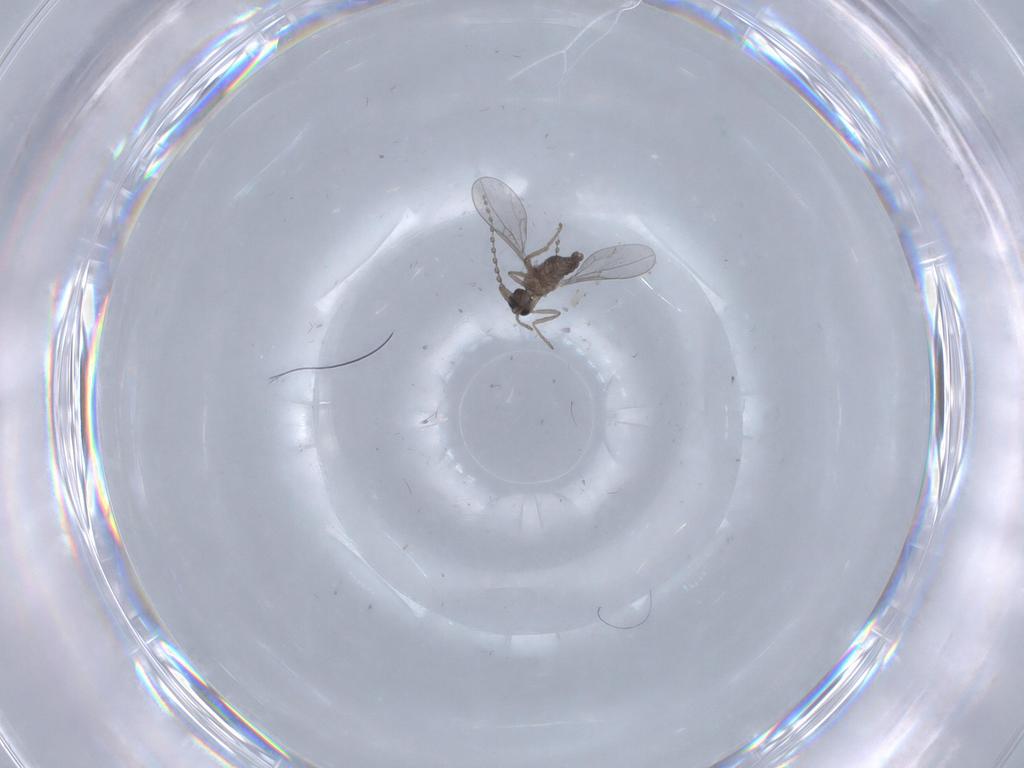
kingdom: Animalia
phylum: Arthropoda
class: Insecta
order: Diptera
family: Cecidomyiidae
